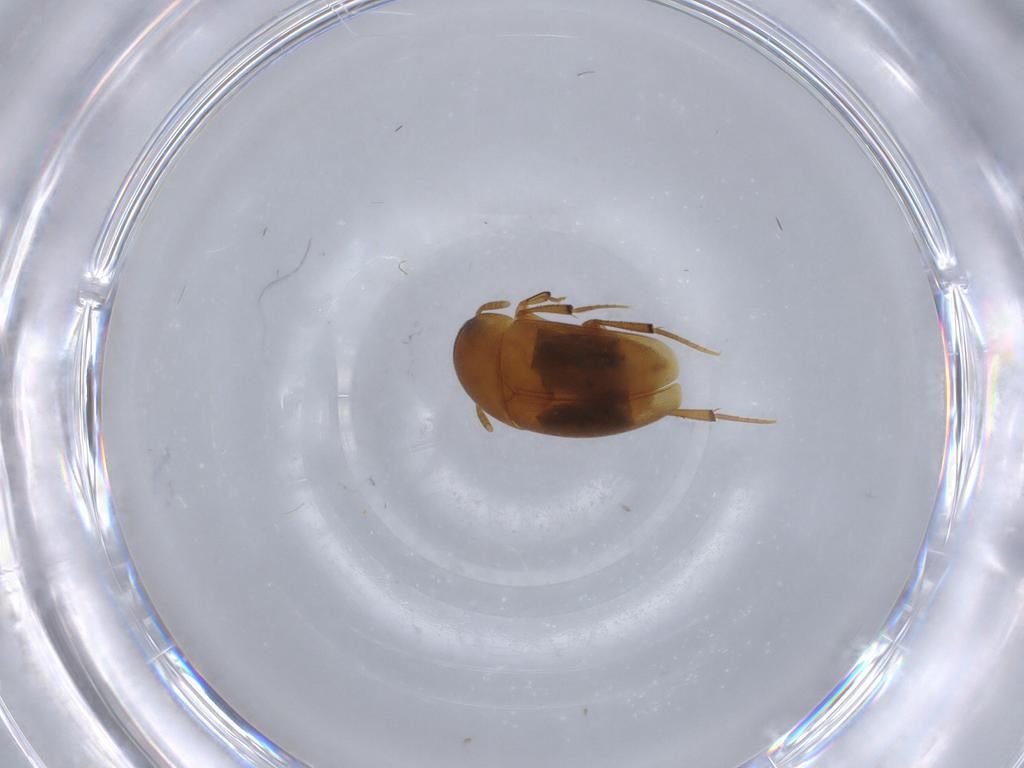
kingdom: Animalia
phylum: Arthropoda
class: Insecta
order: Coleoptera
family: Leiodidae
